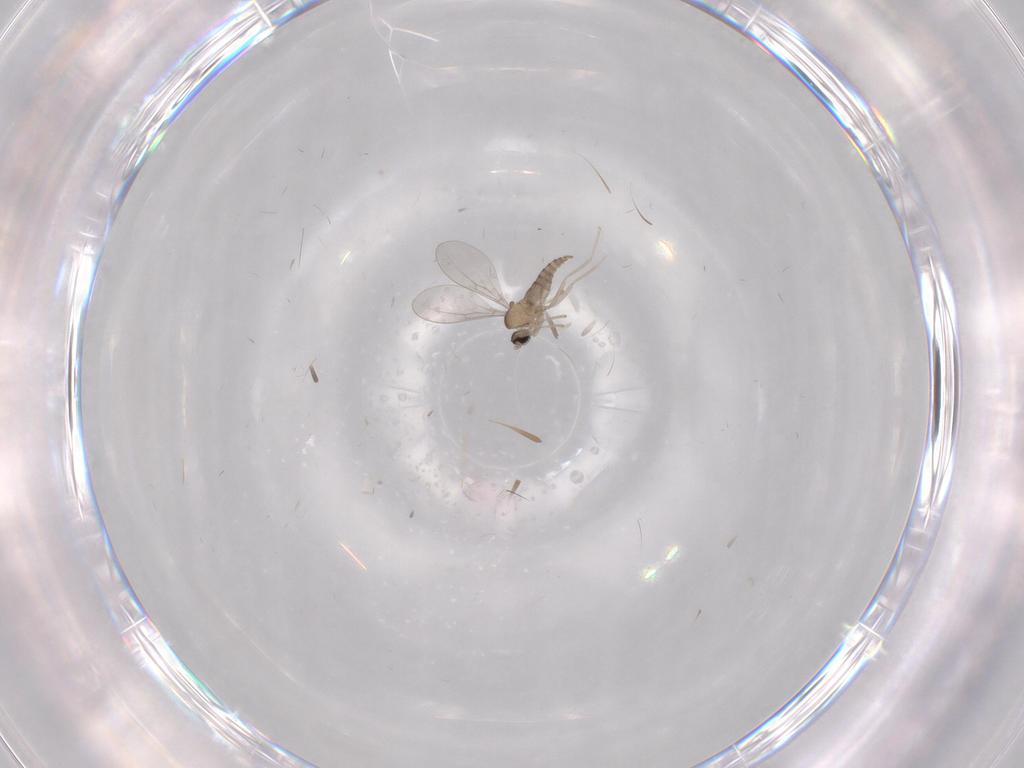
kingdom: Animalia
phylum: Arthropoda
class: Insecta
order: Diptera
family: Cecidomyiidae
